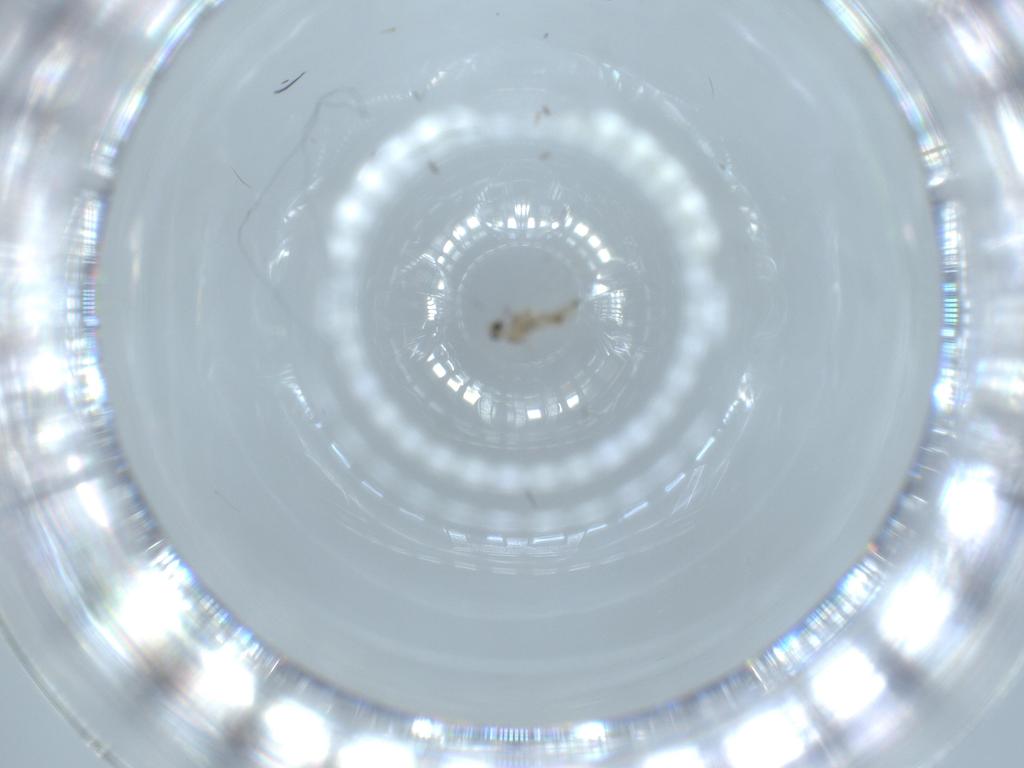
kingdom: Animalia
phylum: Arthropoda
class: Insecta
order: Diptera
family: Cecidomyiidae
